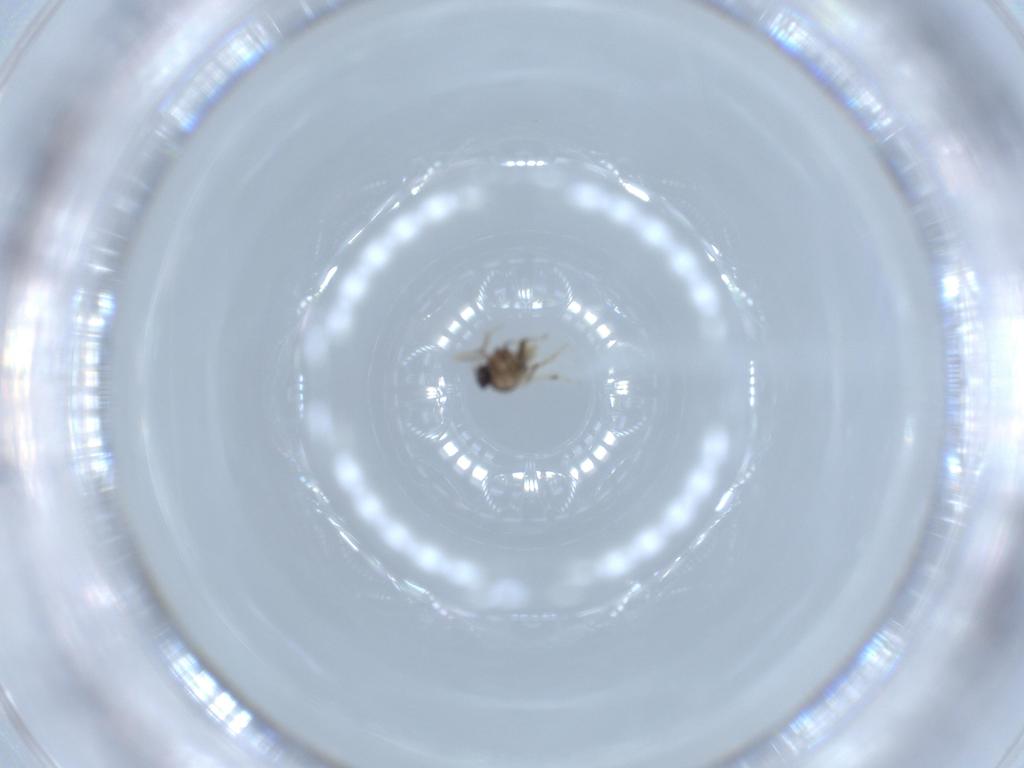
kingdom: Animalia
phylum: Arthropoda
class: Insecta
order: Diptera
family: Ceratopogonidae
